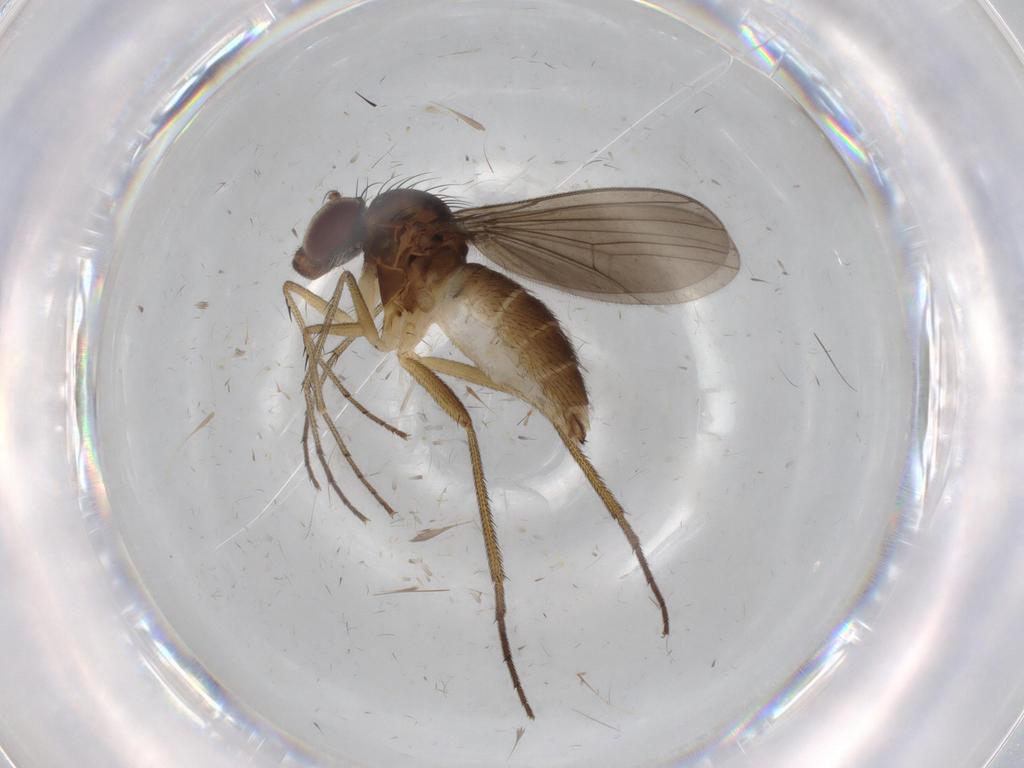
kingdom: Animalia
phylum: Arthropoda
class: Insecta
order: Diptera
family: Dolichopodidae
